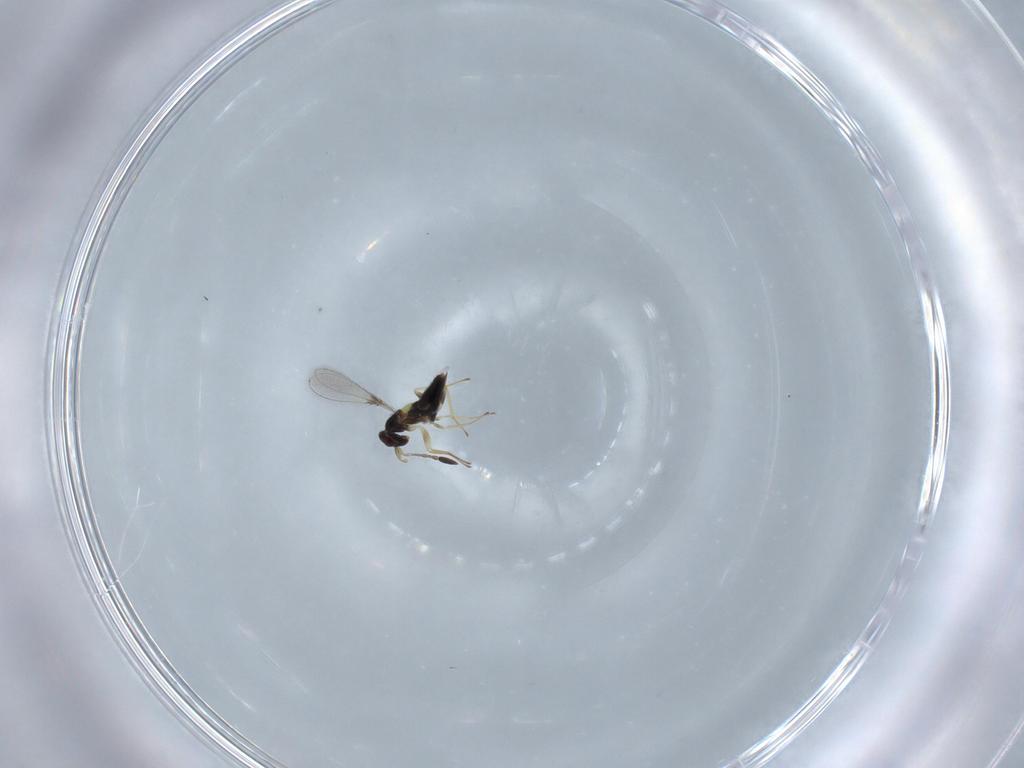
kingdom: Animalia
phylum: Arthropoda
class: Insecta
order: Hymenoptera
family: Mymaridae
